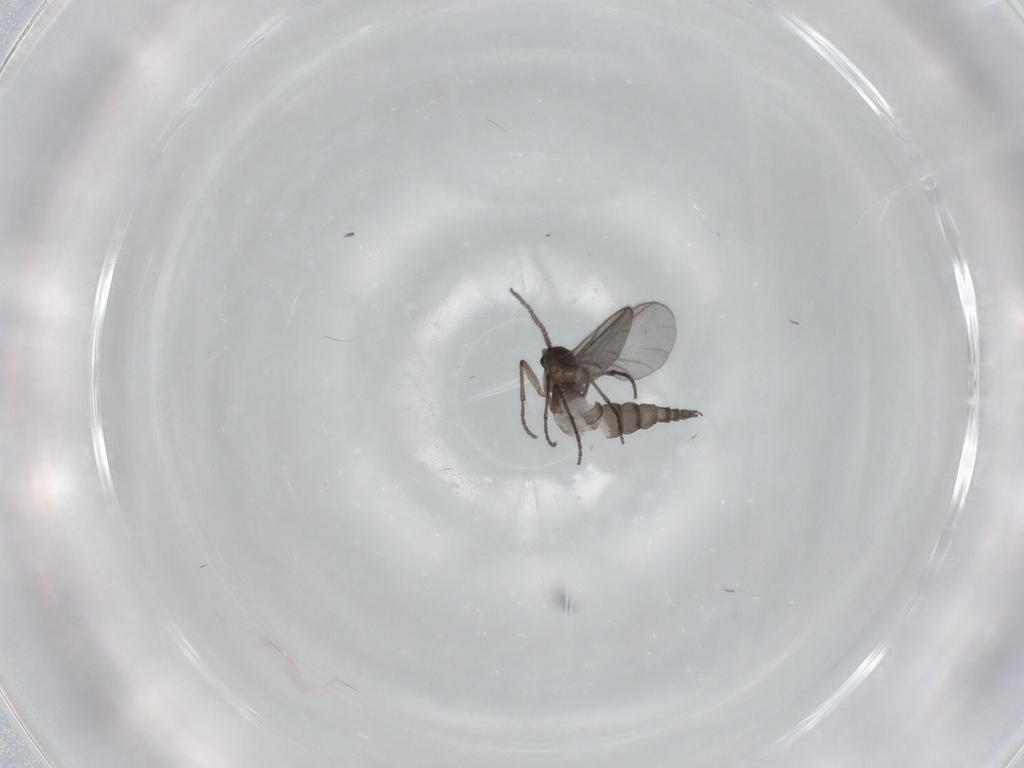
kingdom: Animalia
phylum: Arthropoda
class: Insecta
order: Diptera
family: Sciaridae
